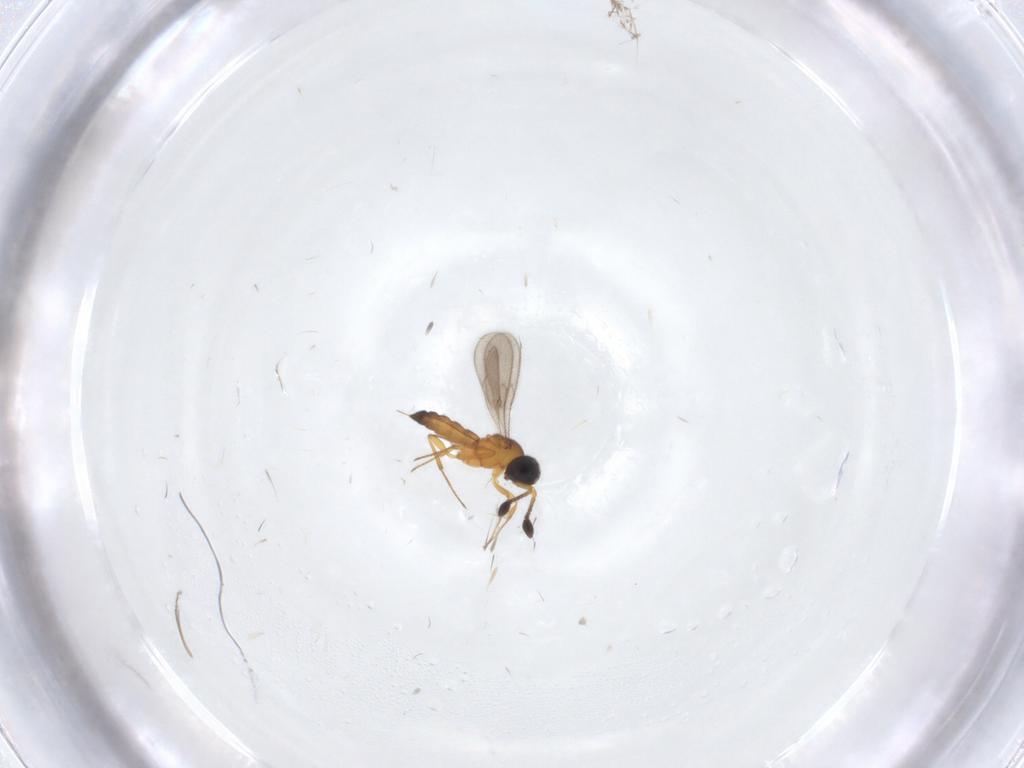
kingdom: Animalia
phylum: Arthropoda
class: Insecta
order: Hymenoptera
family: Scelionidae
